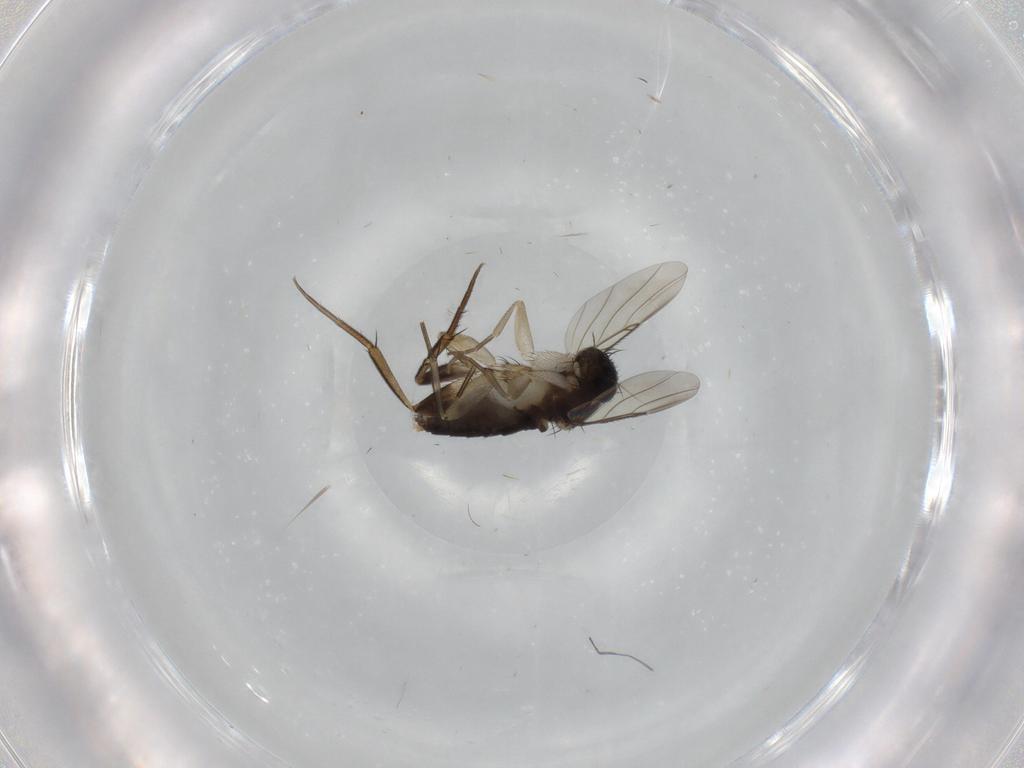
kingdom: Animalia
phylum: Arthropoda
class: Insecta
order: Diptera
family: Phoridae
